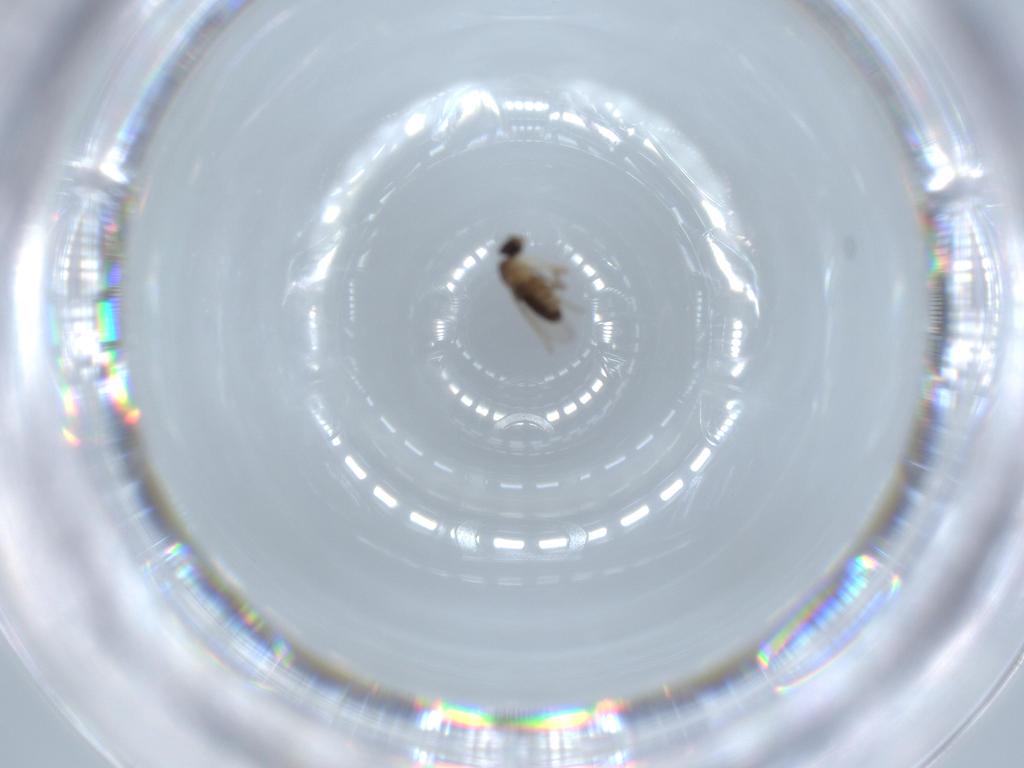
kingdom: Animalia
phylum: Arthropoda
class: Insecta
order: Diptera
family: Phoridae
